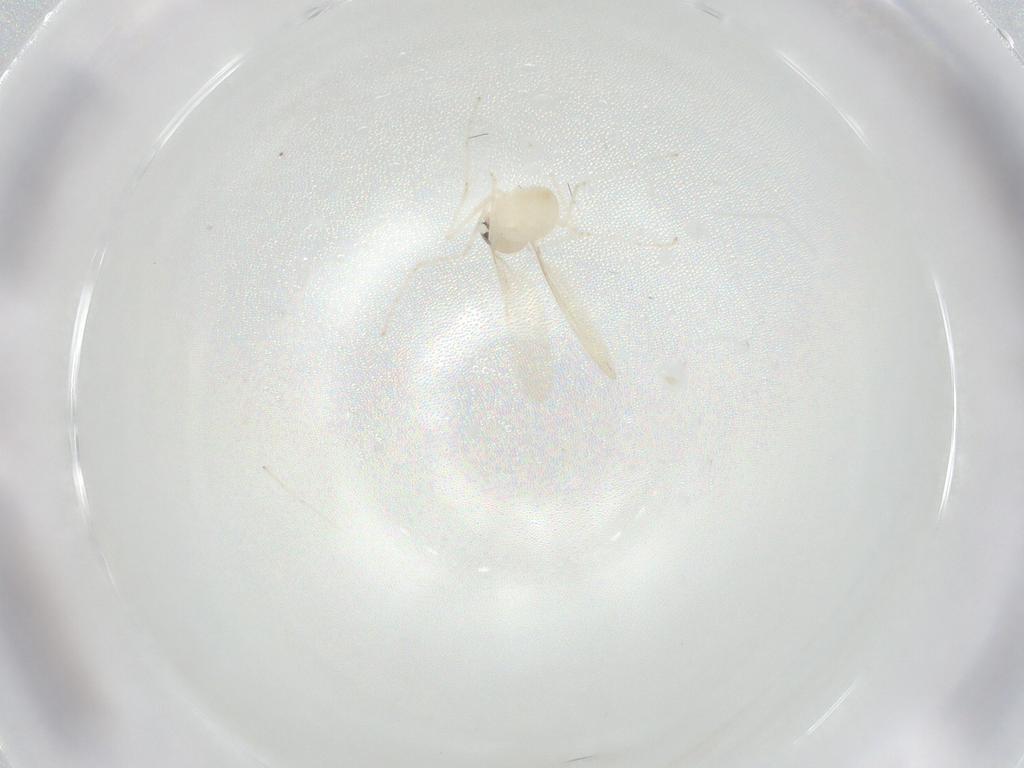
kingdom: Animalia
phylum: Arthropoda
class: Insecta
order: Diptera
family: Cecidomyiidae
